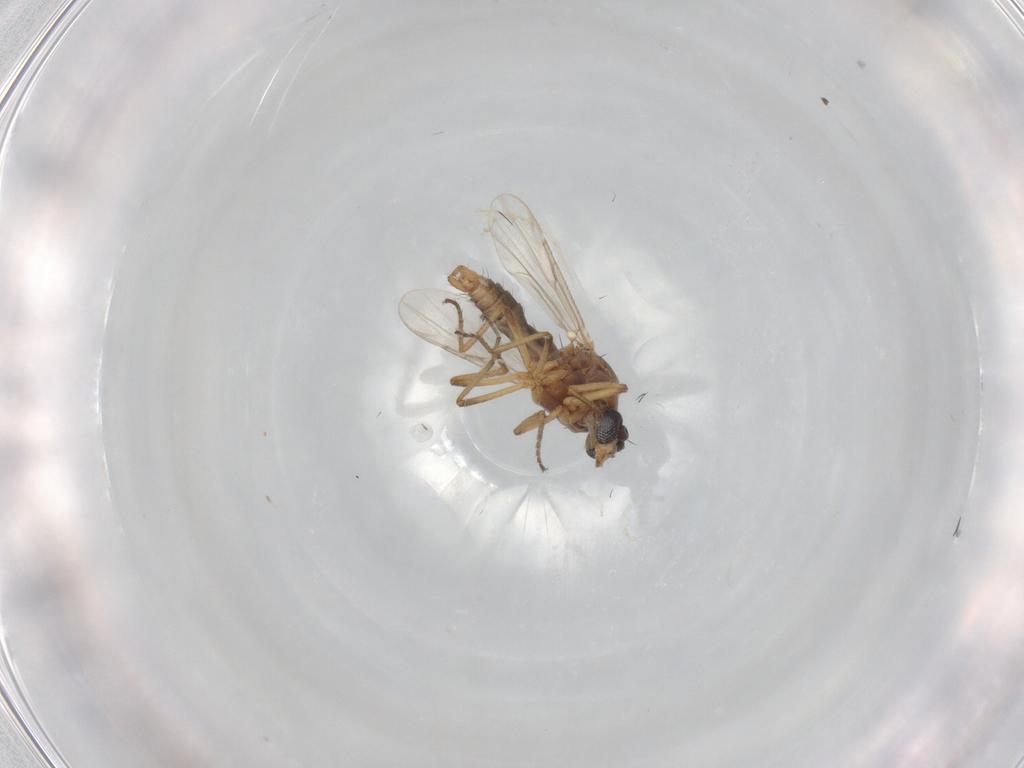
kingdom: Animalia
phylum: Arthropoda
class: Insecta
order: Diptera
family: Ceratopogonidae
